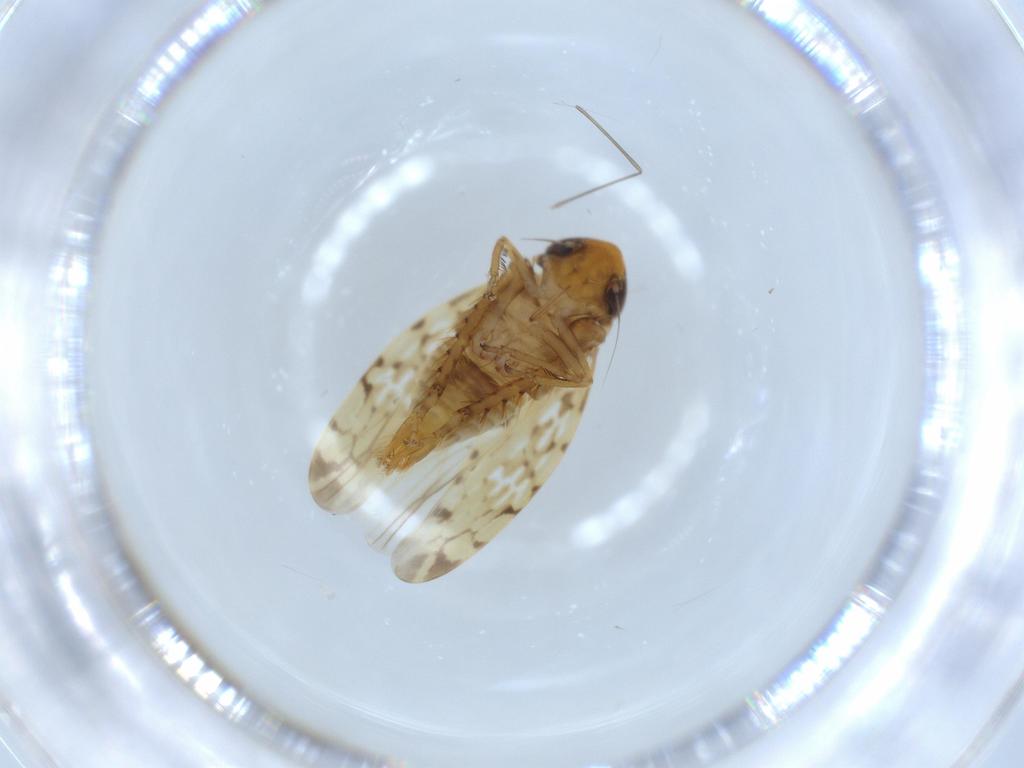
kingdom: Animalia
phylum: Arthropoda
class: Insecta
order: Hemiptera
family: Cicadellidae
